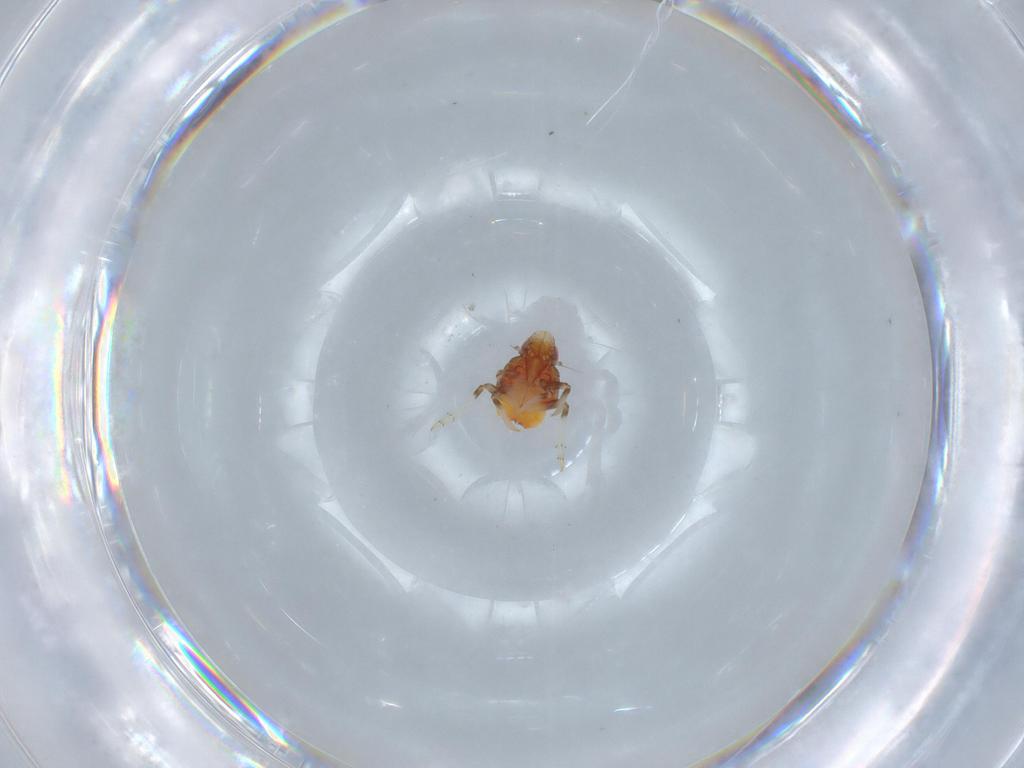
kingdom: Animalia
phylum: Arthropoda
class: Insecta
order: Hemiptera
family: Issidae
